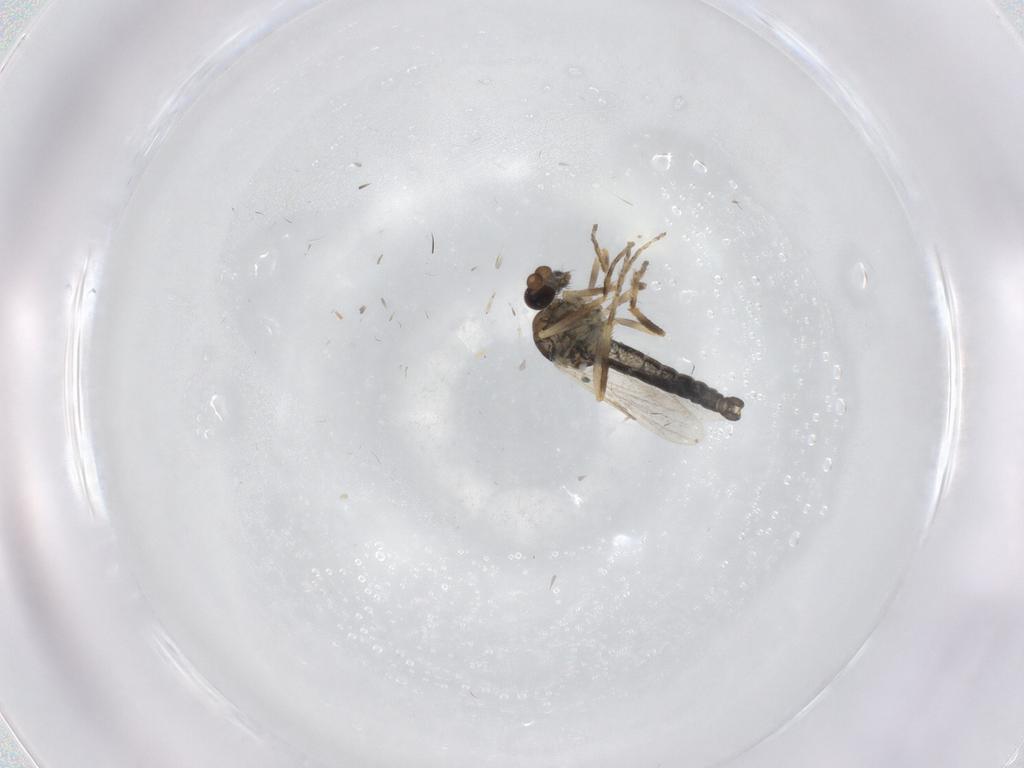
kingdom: Animalia
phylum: Arthropoda
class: Insecta
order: Diptera
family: Chironomidae
